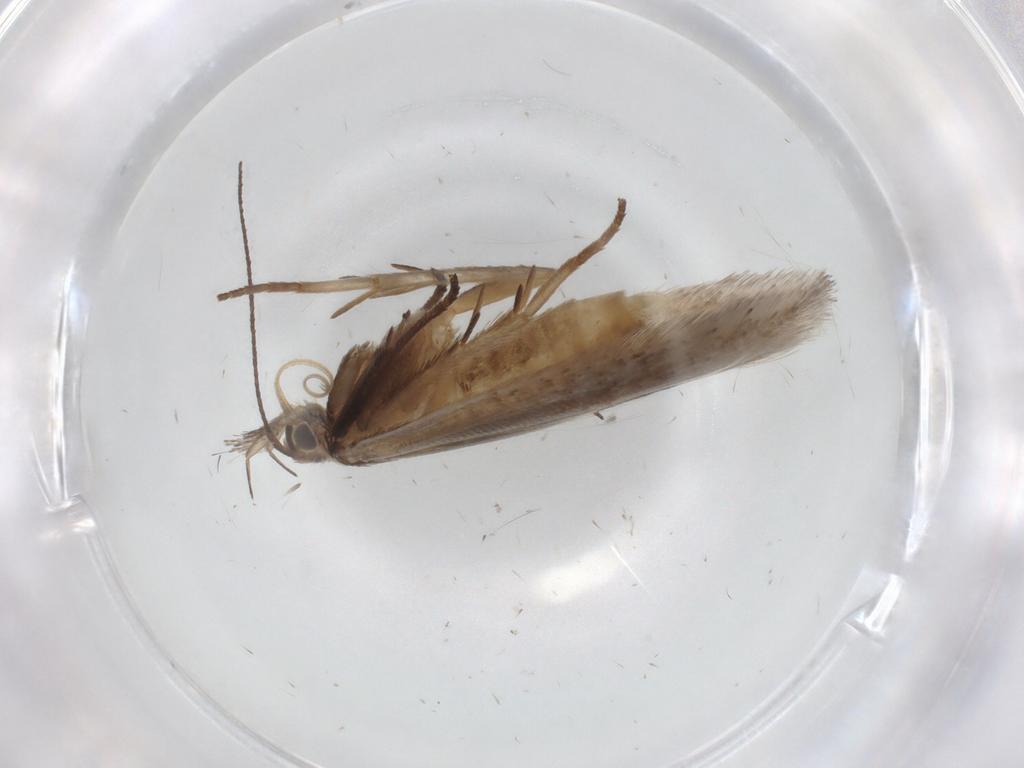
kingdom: Animalia
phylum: Arthropoda
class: Insecta
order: Lepidoptera
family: Gelechiidae
